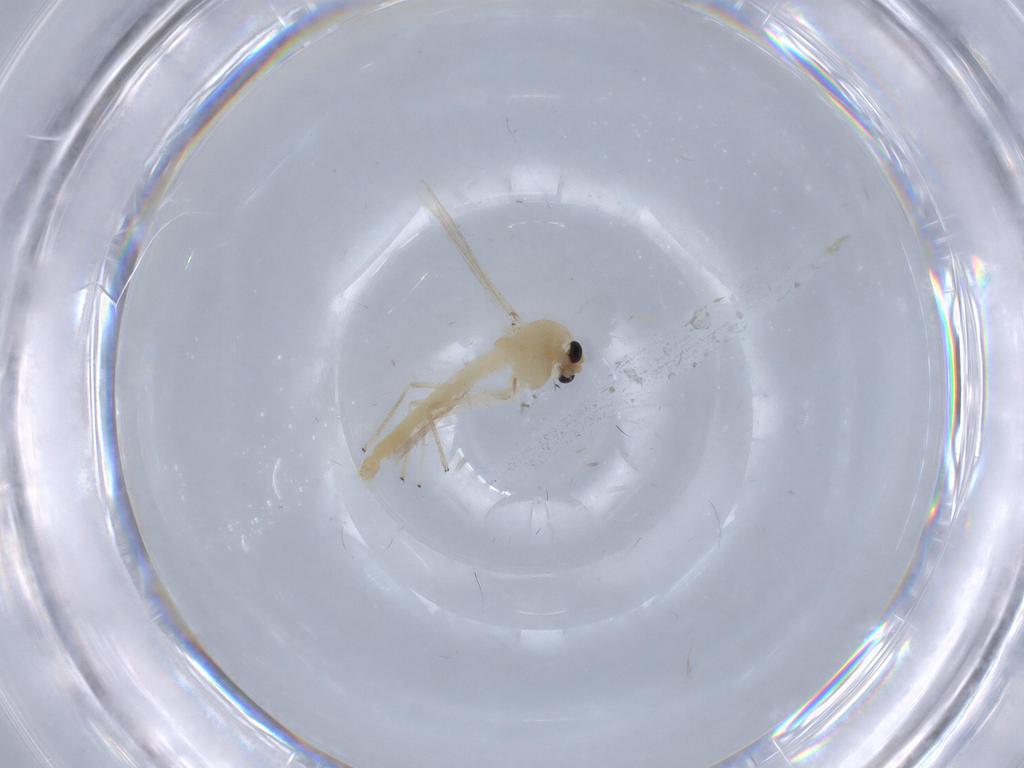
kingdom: Animalia
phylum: Arthropoda
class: Insecta
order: Diptera
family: Chironomidae
